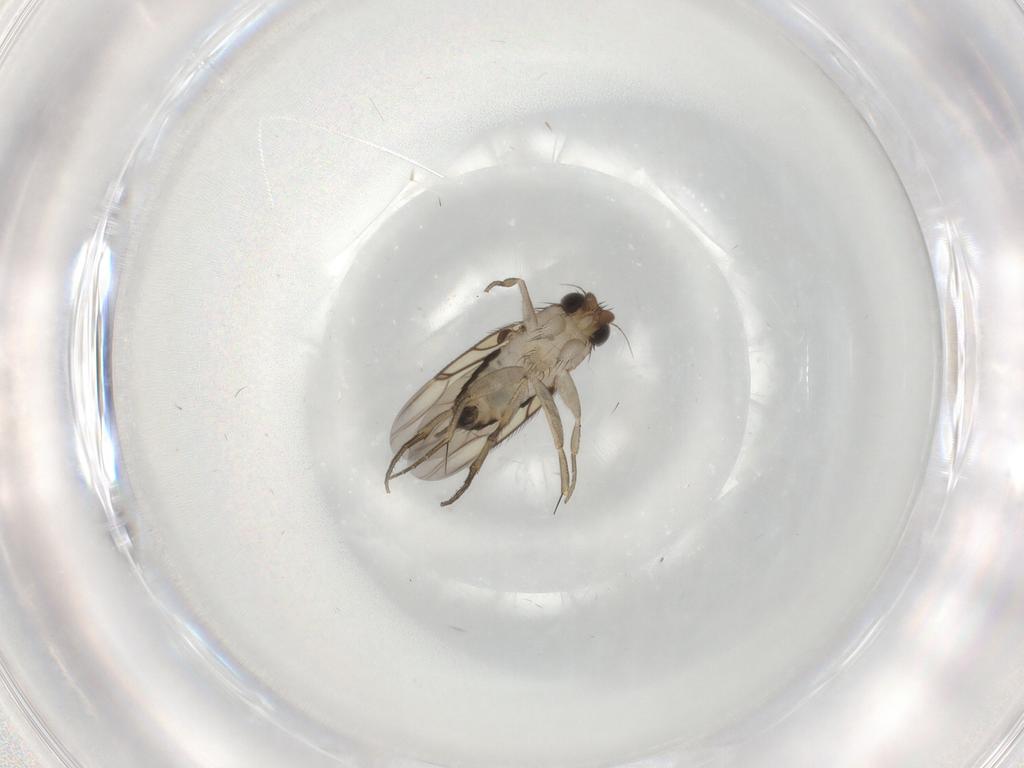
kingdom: Animalia
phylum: Arthropoda
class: Insecta
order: Diptera
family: Phoridae
